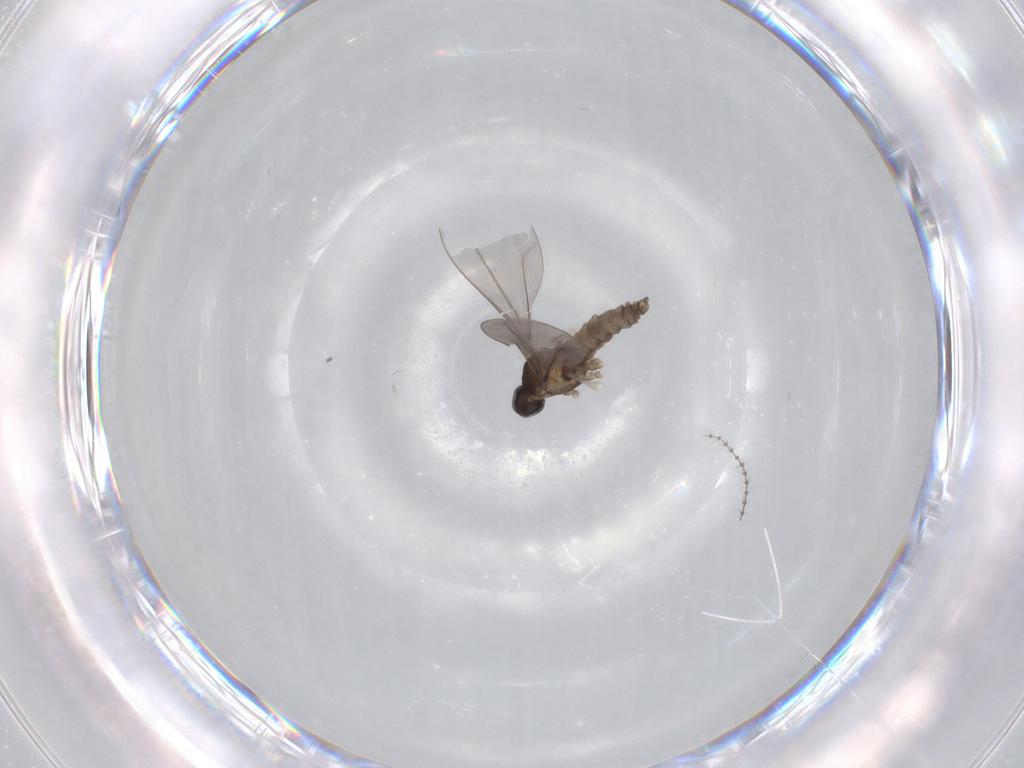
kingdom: Animalia
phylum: Arthropoda
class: Insecta
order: Diptera
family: Cecidomyiidae
